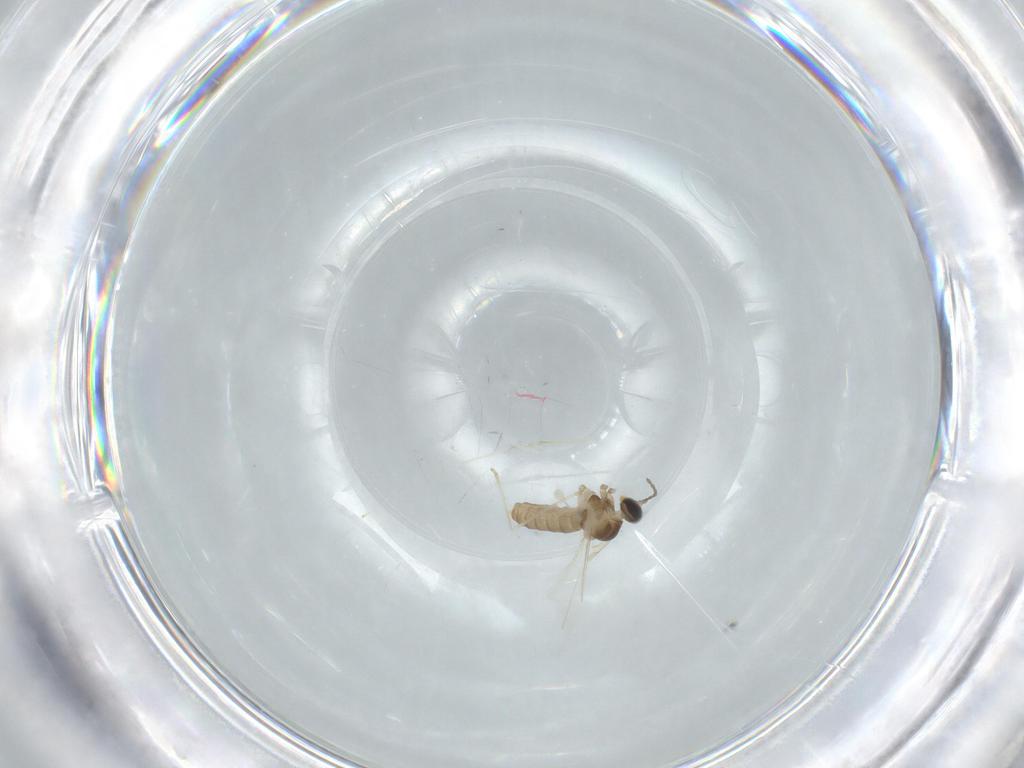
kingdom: Animalia
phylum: Arthropoda
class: Insecta
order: Diptera
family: Cecidomyiidae
